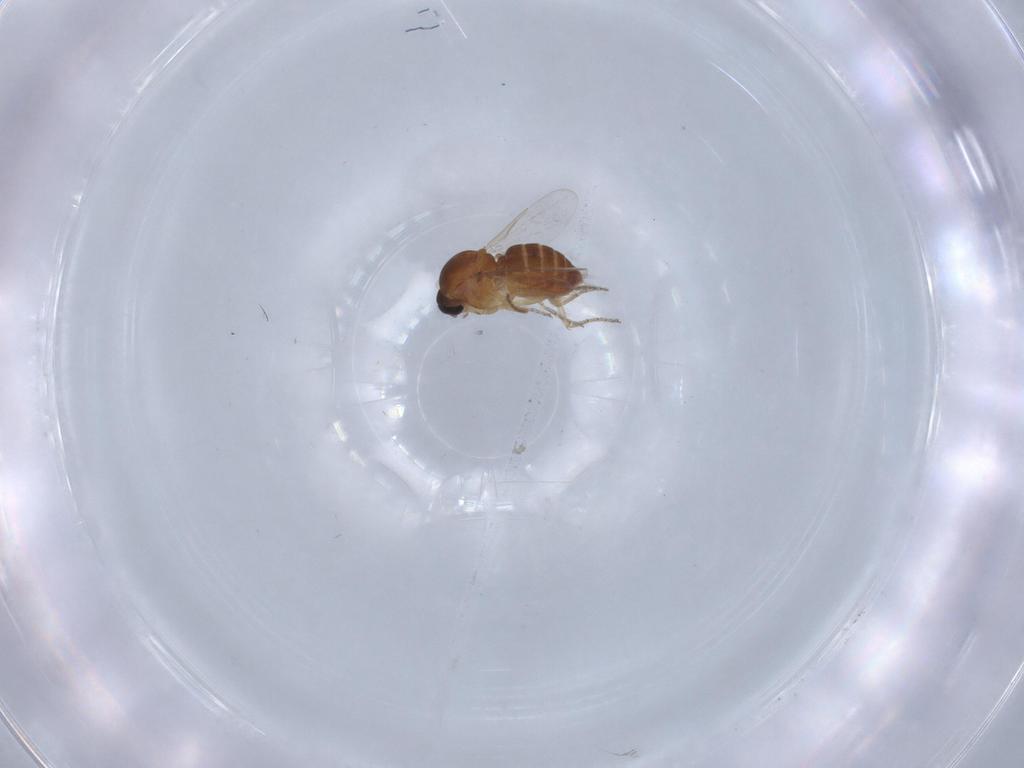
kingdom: Animalia
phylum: Arthropoda
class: Insecta
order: Diptera
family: Ceratopogonidae
